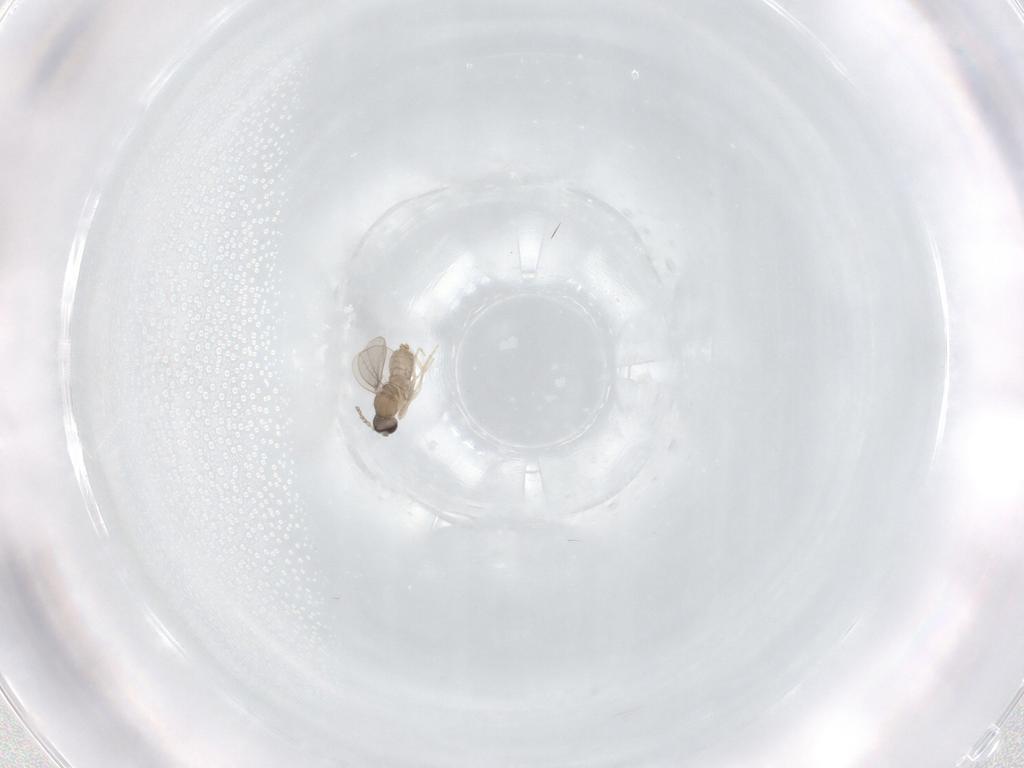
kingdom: Animalia
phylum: Arthropoda
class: Insecta
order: Diptera
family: Cecidomyiidae
